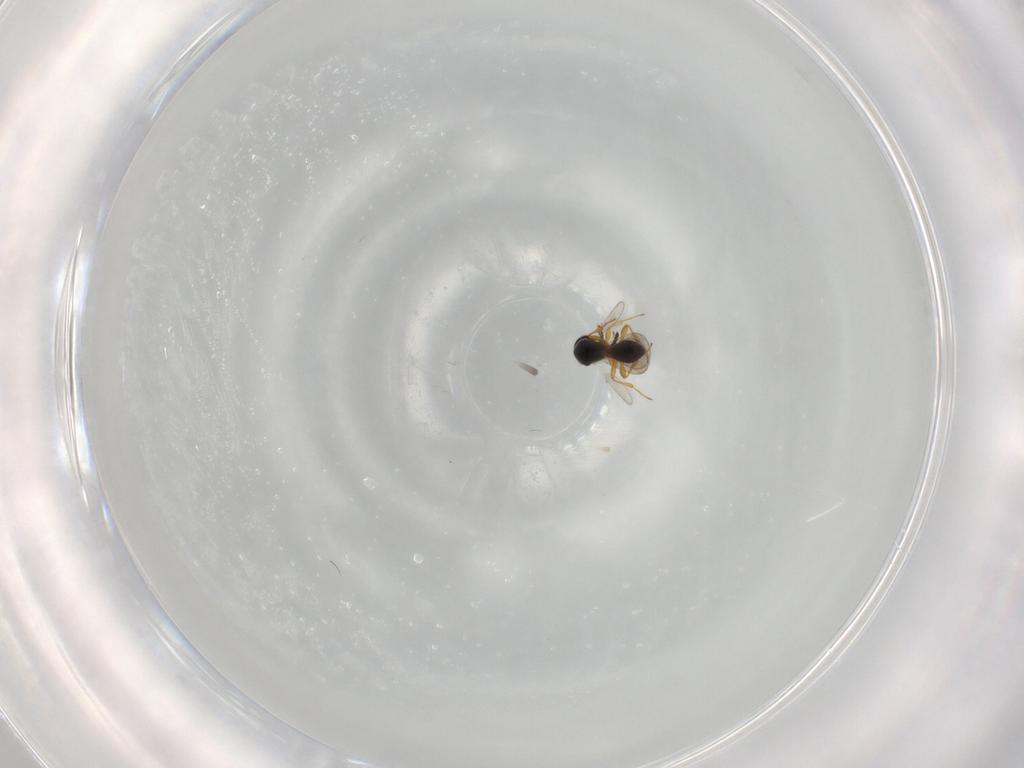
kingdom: Animalia
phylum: Arthropoda
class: Insecta
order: Hymenoptera
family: Platygastridae
